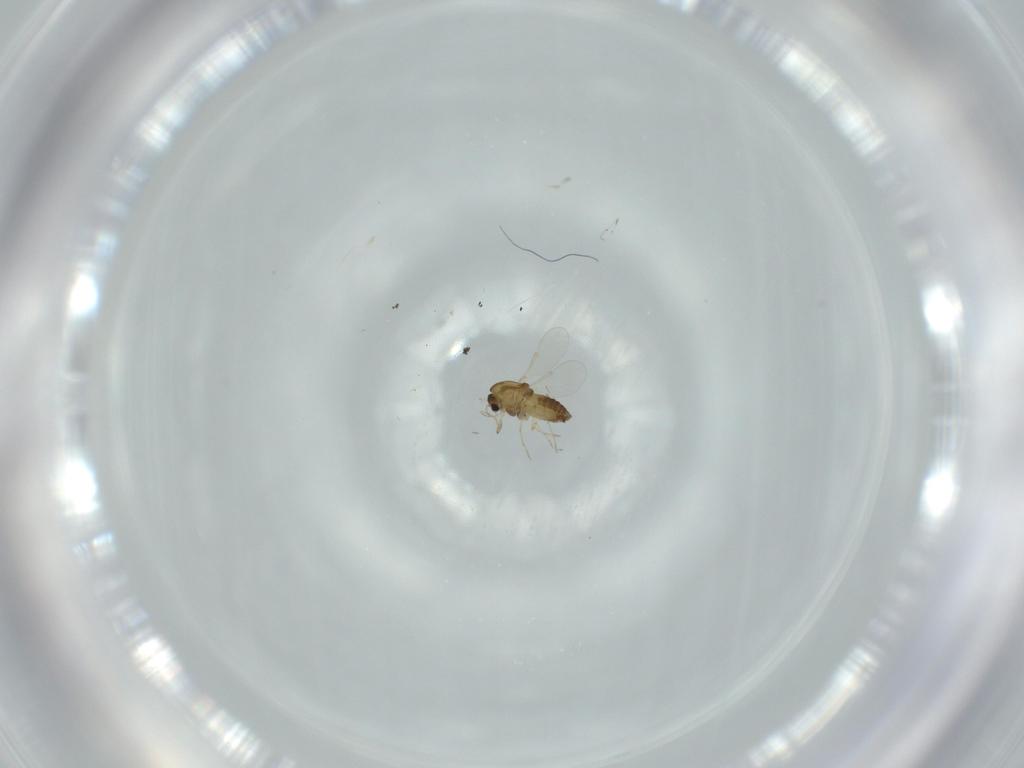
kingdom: Animalia
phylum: Arthropoda
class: Insecta
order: Diptera
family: Chironomidae
